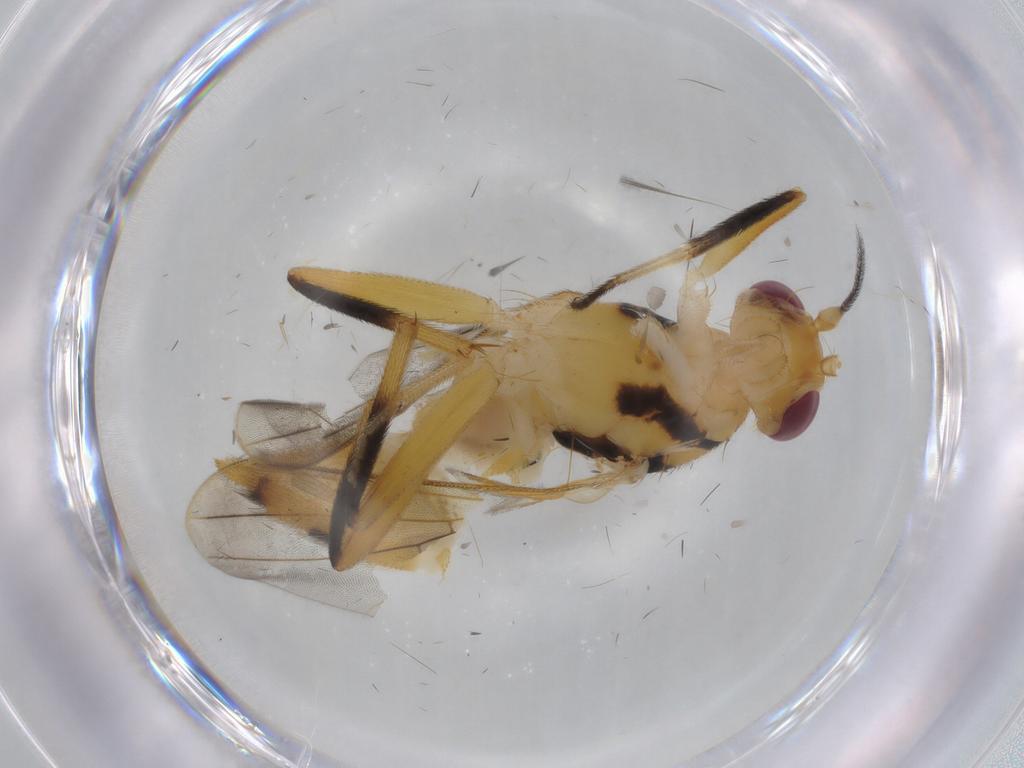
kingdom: Animalia
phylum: Arthropoda
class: Insecta
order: Diptera
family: Clusiidae
